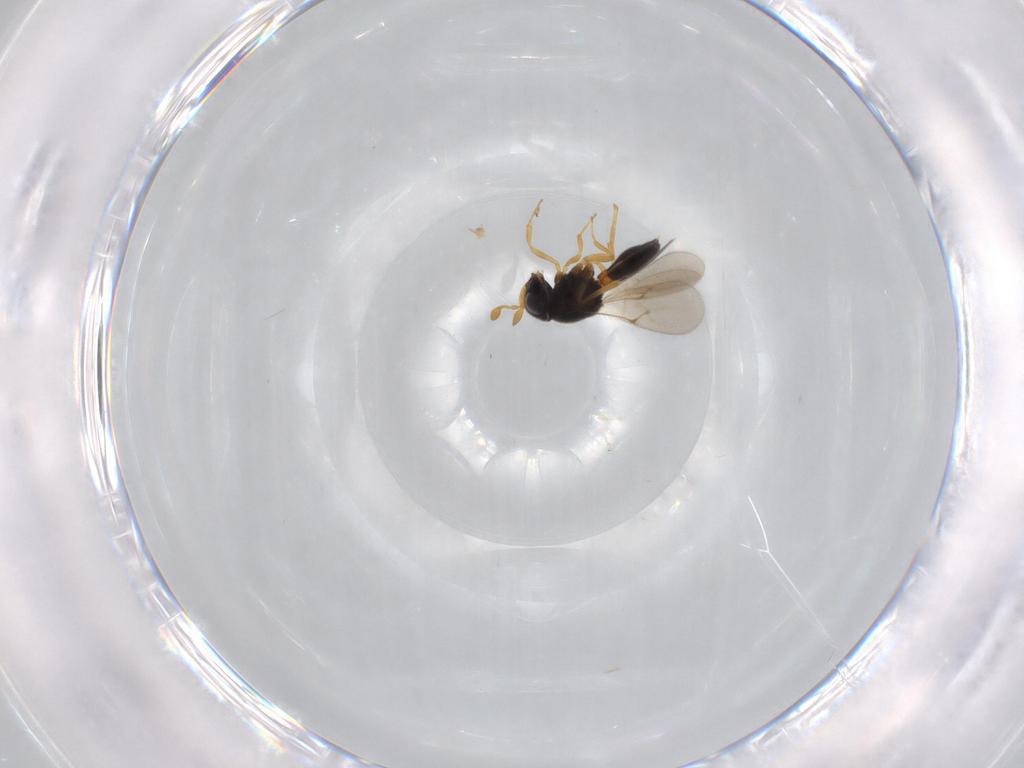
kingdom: Animalia
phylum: Arthropoda
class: Insecta
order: Hymenoptera
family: Scelionidae
